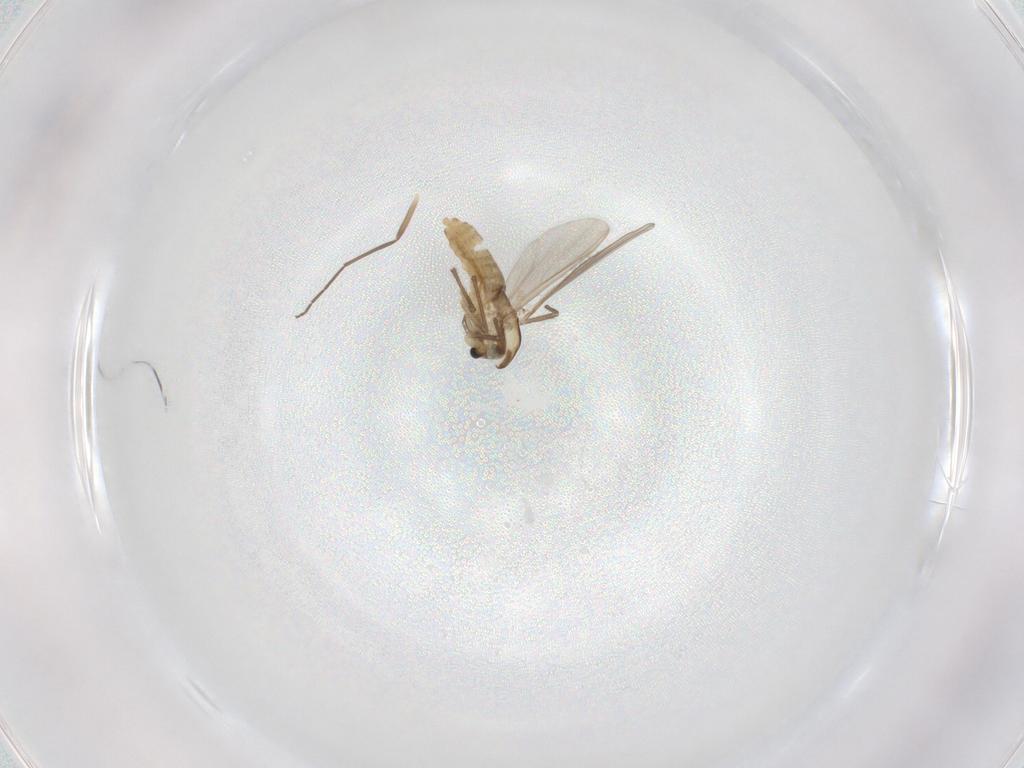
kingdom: Animalia
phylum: Arthropoda
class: Insecta
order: Diptera
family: Chironomidae
